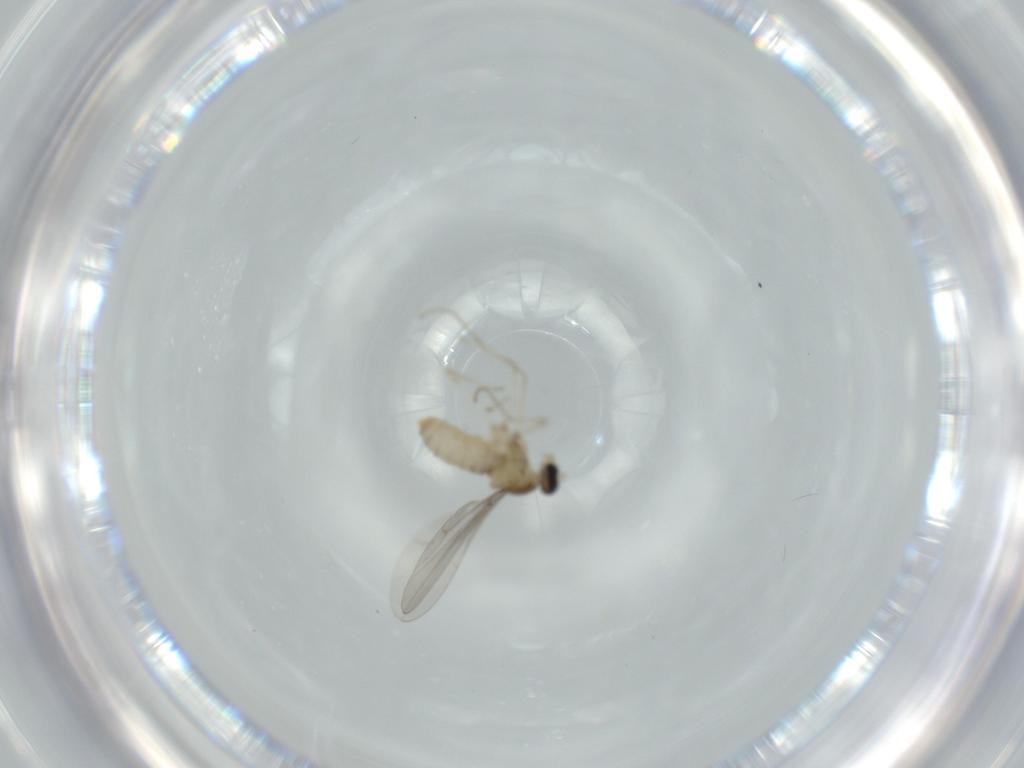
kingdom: Animalia
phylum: Arthropoda
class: Insecta
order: Diptera
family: Cecidomyiidae
